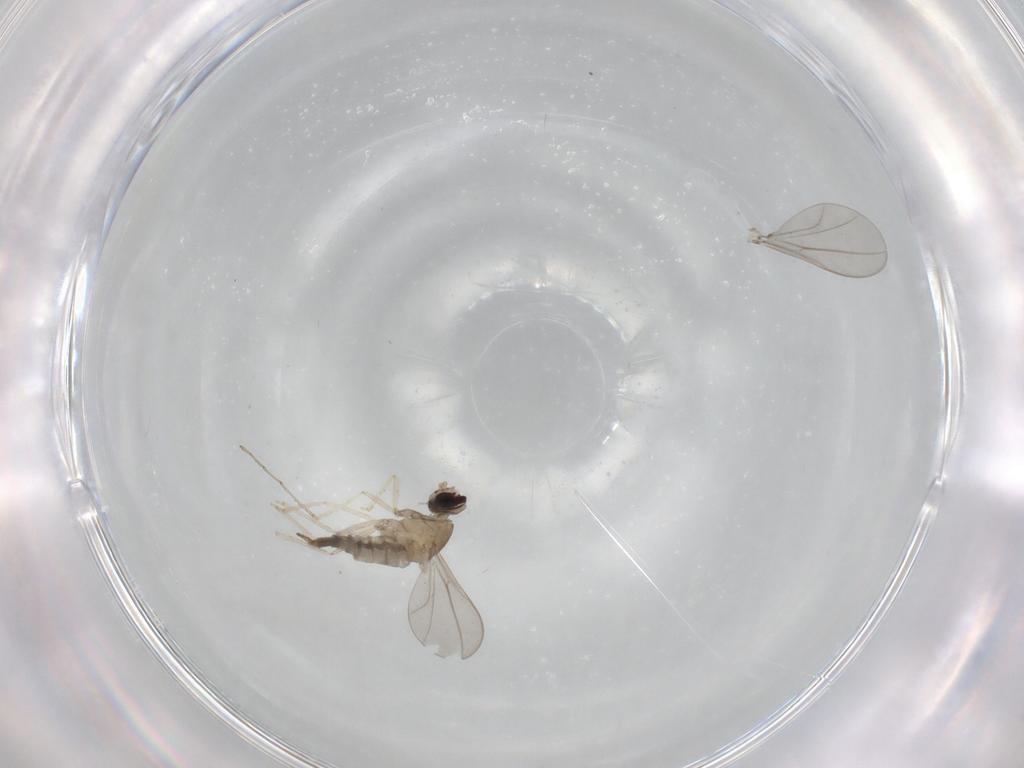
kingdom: Animalia
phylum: Arthropoda
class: Insecta
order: Diptera
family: Cecidomyiidae
